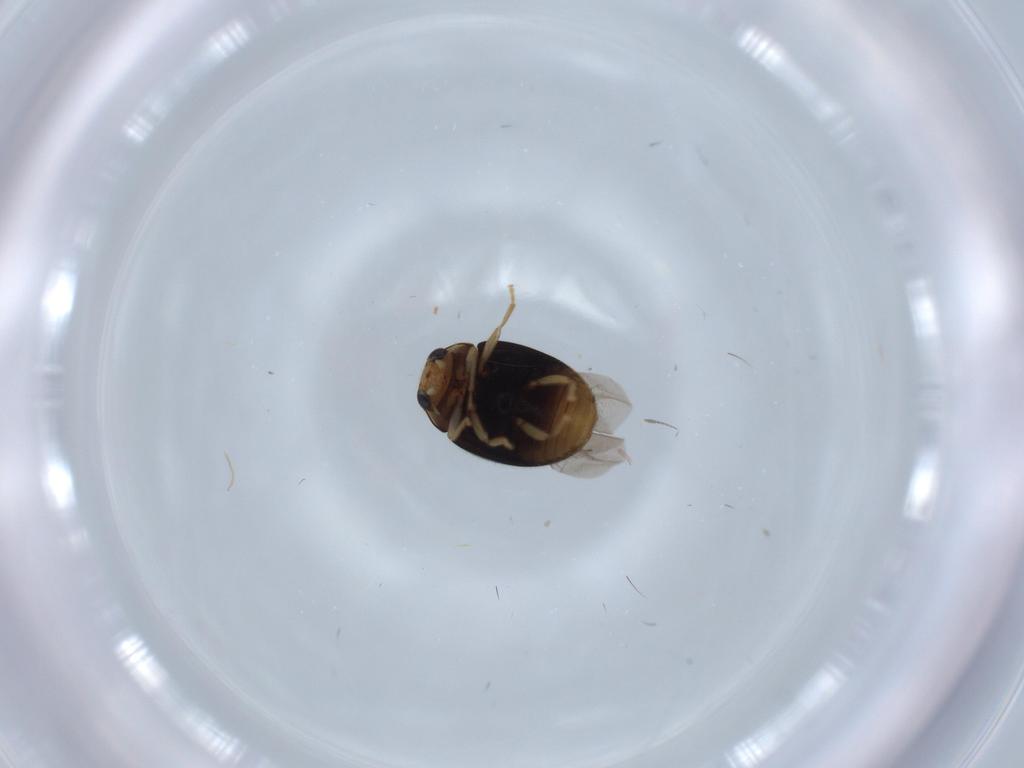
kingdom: Animalia
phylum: Arthropoda
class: Insecta
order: Coleoptera
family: Coccinellidae
